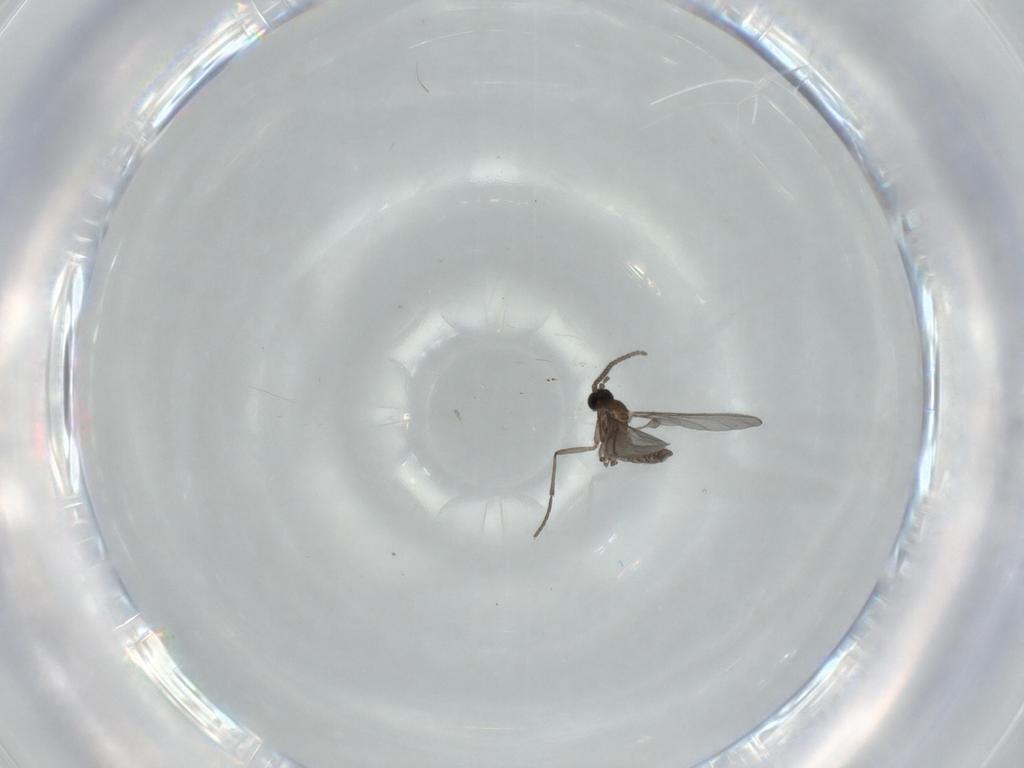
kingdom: Animalia
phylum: Arthropoda
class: Insecta
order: Diptera
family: Sciaridae
